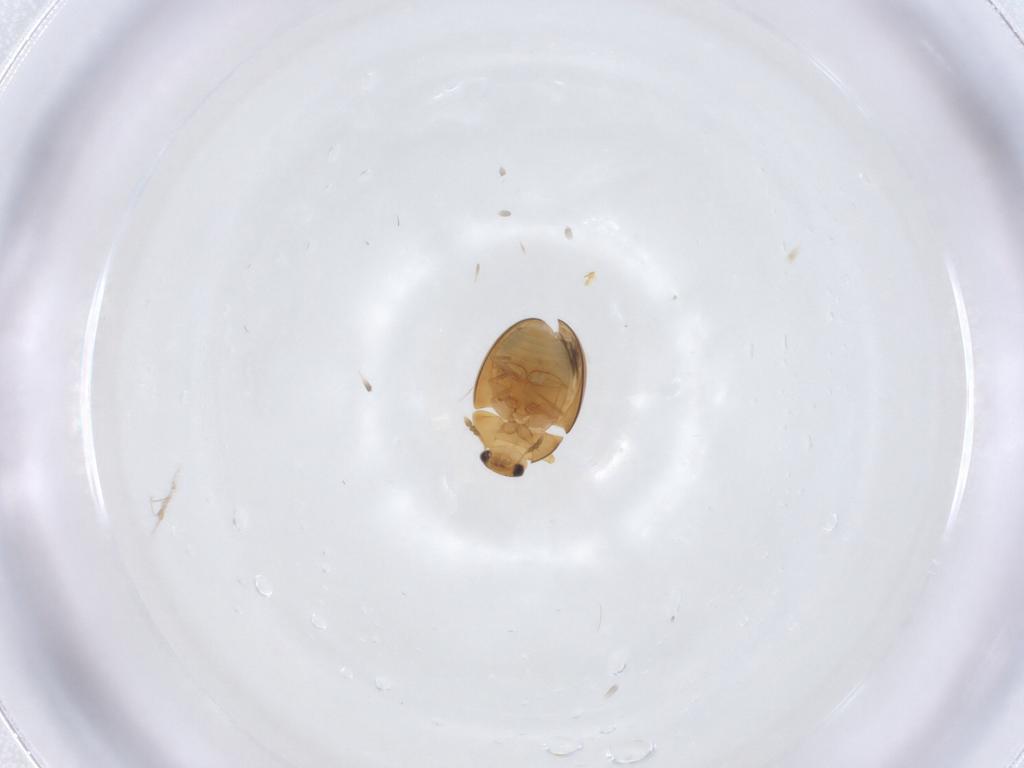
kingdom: Animalia
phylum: Arthropoda
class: Insecta
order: Coleoptera
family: Phalacridae
